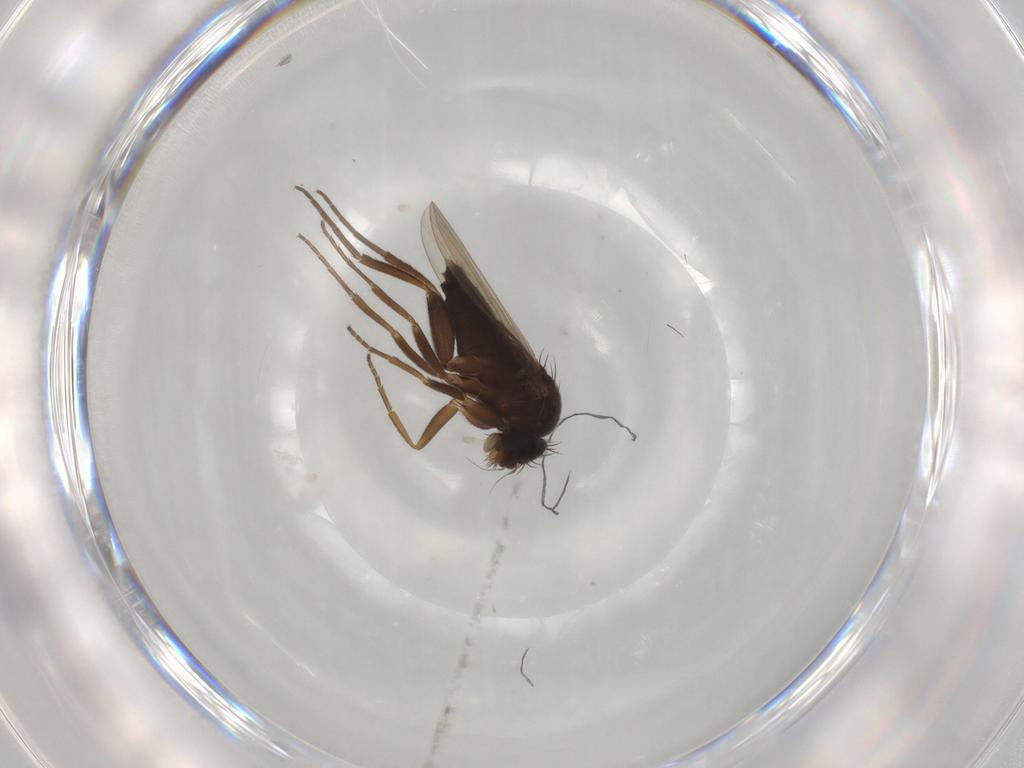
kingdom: Animalia
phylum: Arthropoda
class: Insecta
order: Diptera
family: Phoridae
